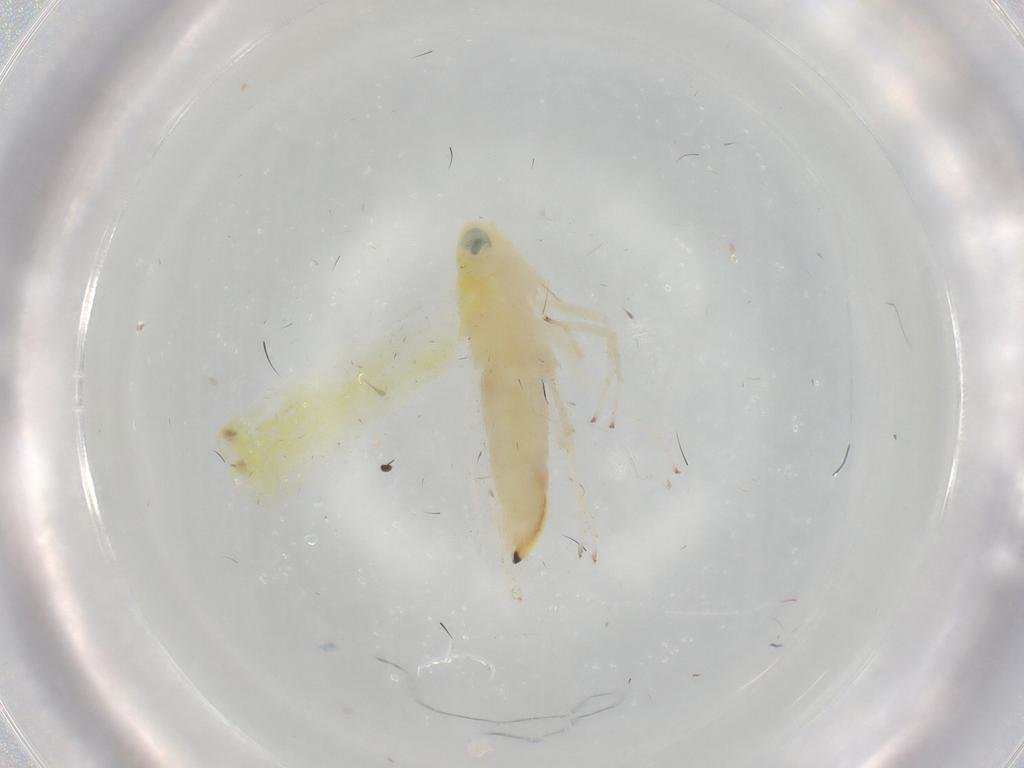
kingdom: Animalia
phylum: Arthropoda
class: Insecta
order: Hemiptera
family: Cicadellidae
